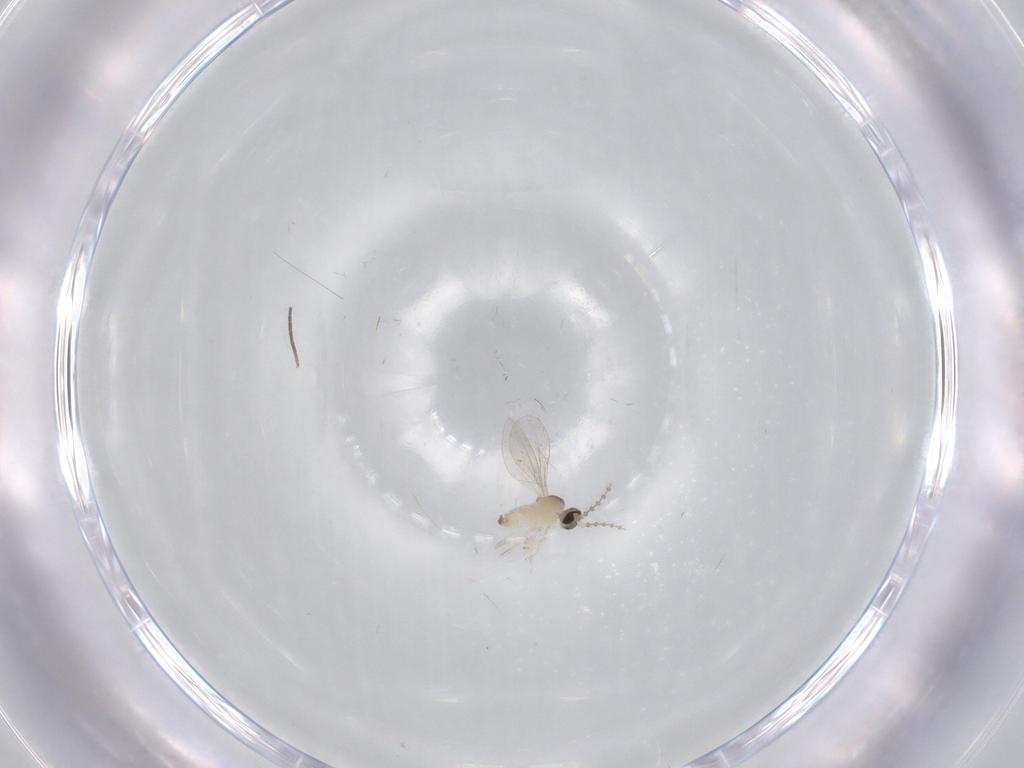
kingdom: Animalia
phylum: Arthropoda
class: Insecta
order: Diptera
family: Cecidomyiidae
